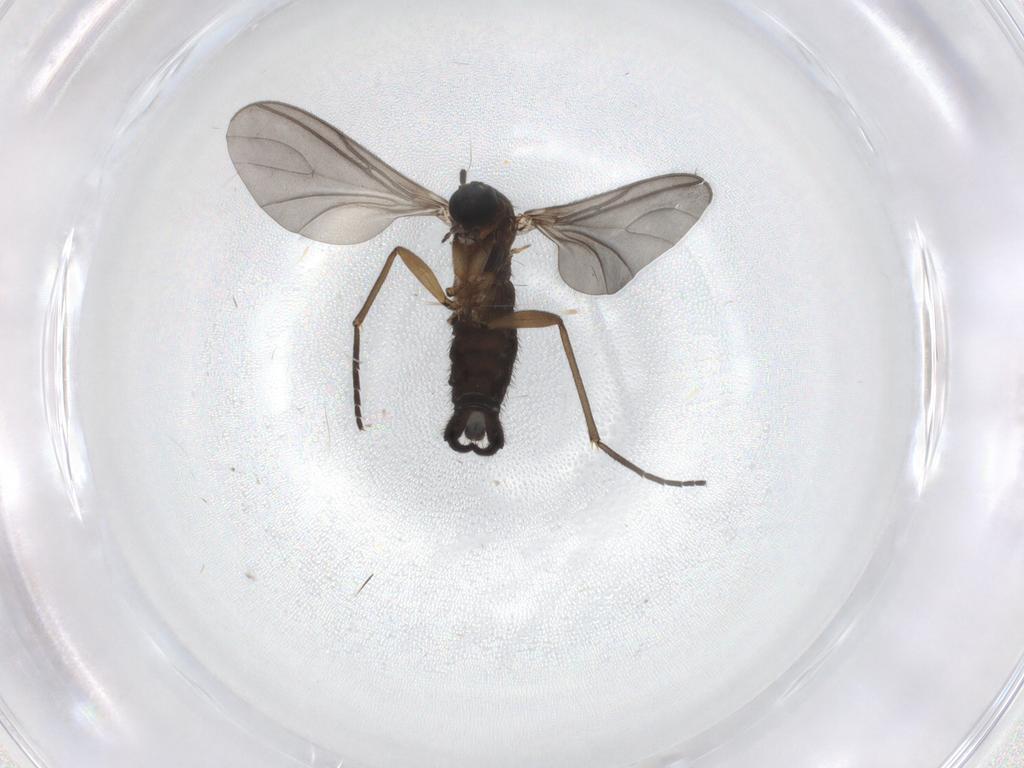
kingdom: Animalia
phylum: Arthropoda
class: Insecta
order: Diptera
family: Sciaridae
